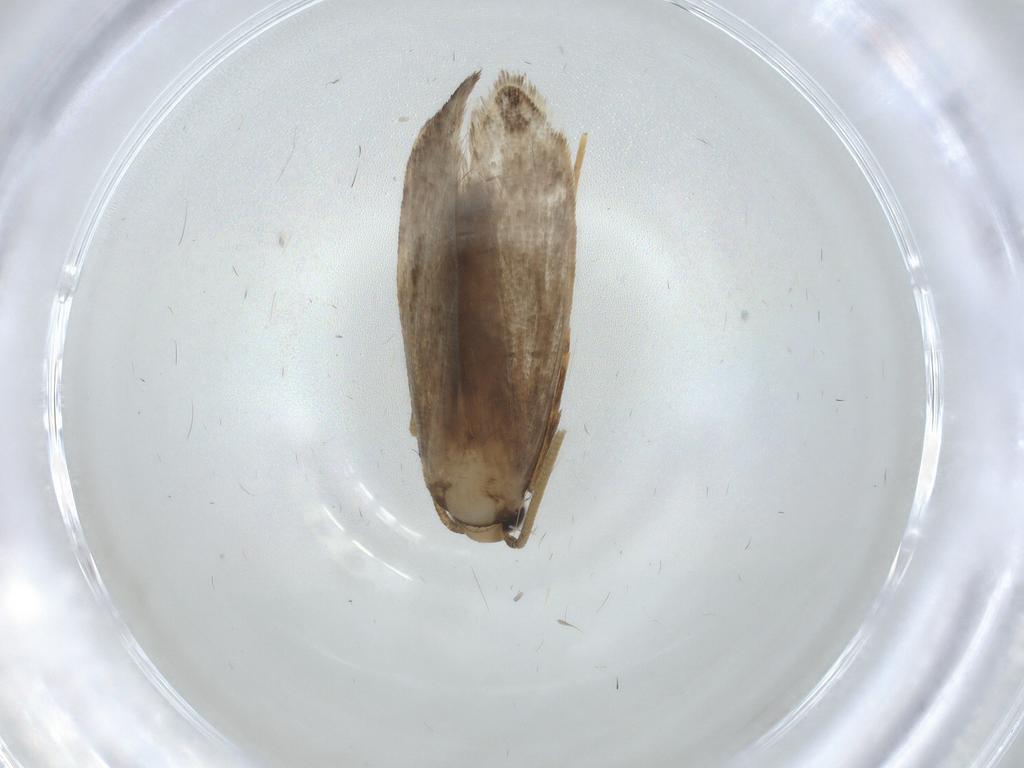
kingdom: Animalia
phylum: Arthropoda
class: Insecta
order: Lepidoptera
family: Tineidae
